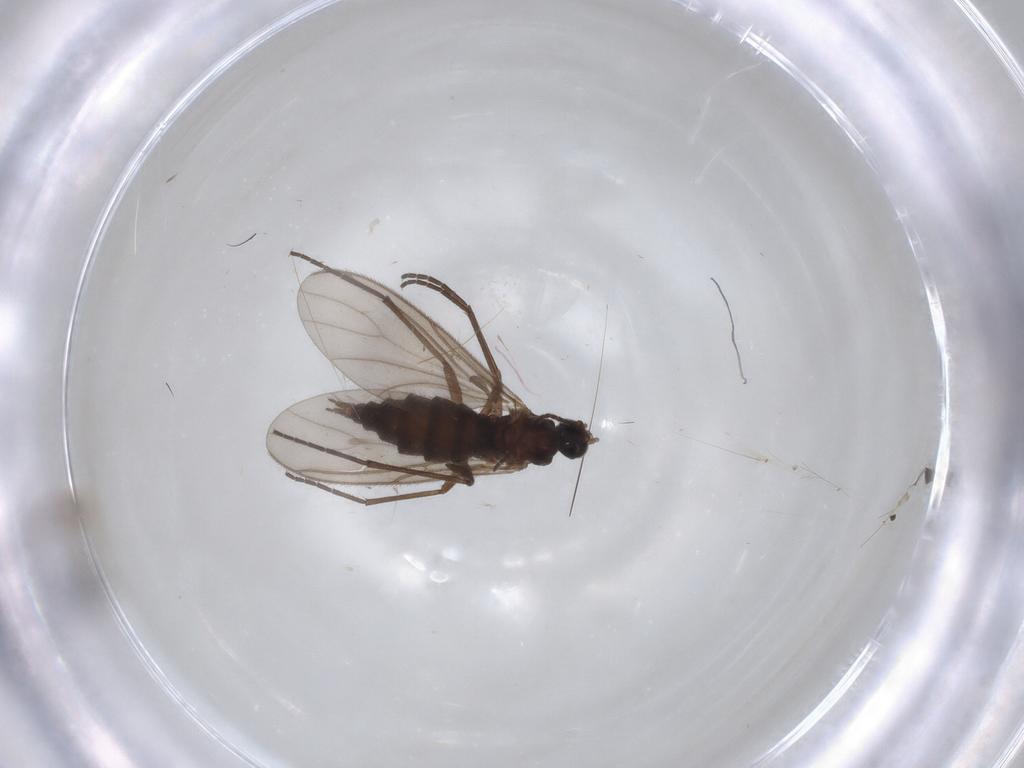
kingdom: Animalia
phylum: Arthropoda
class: Insecta
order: Diptera
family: Sciaridae
